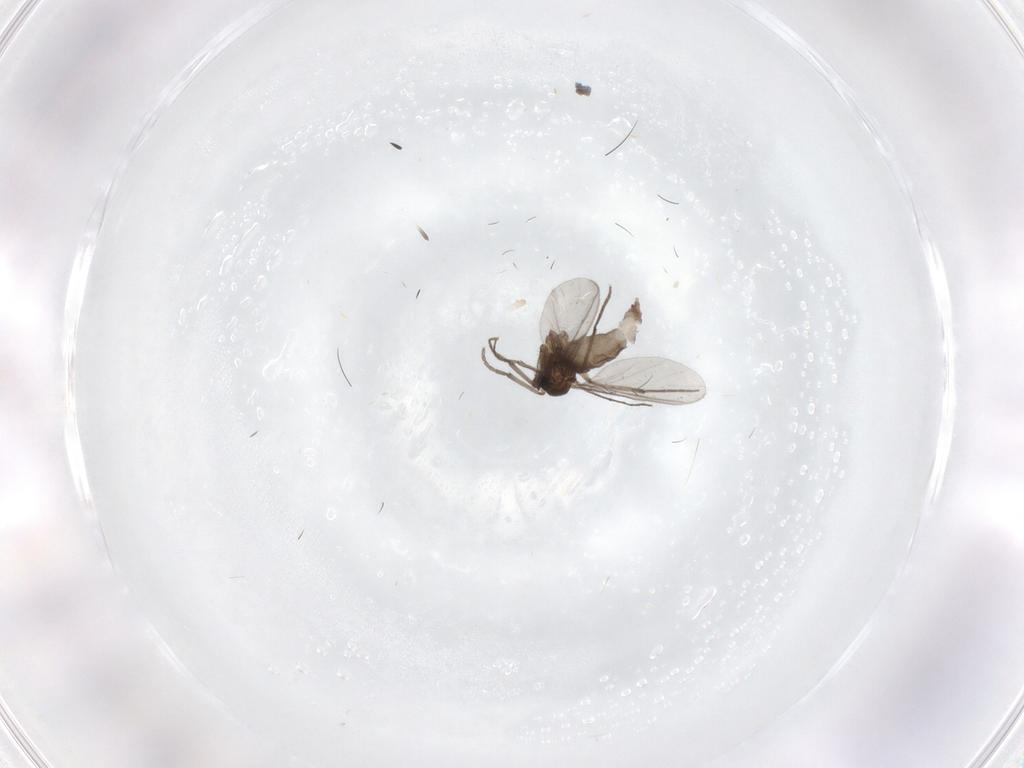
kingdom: Animalia
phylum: Arthropoda
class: Insecta
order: Diptera
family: Sciaridae
